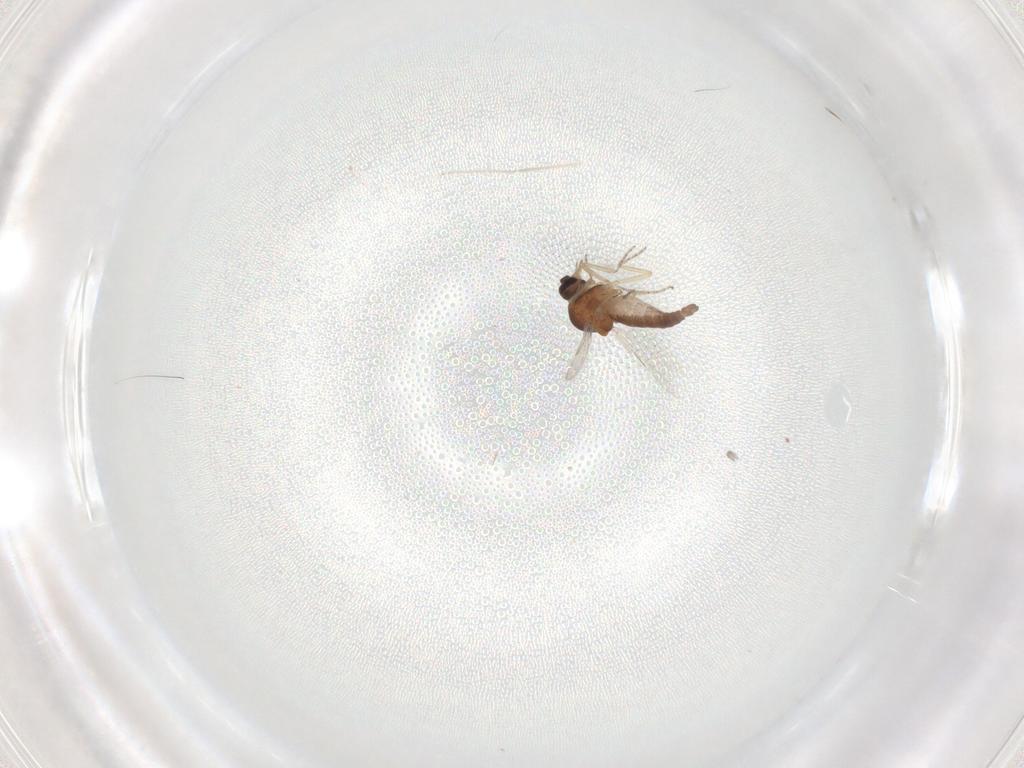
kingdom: Animalia
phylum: Arthropoda
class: Insecta
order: Diptera
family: Ceratopogonidae
